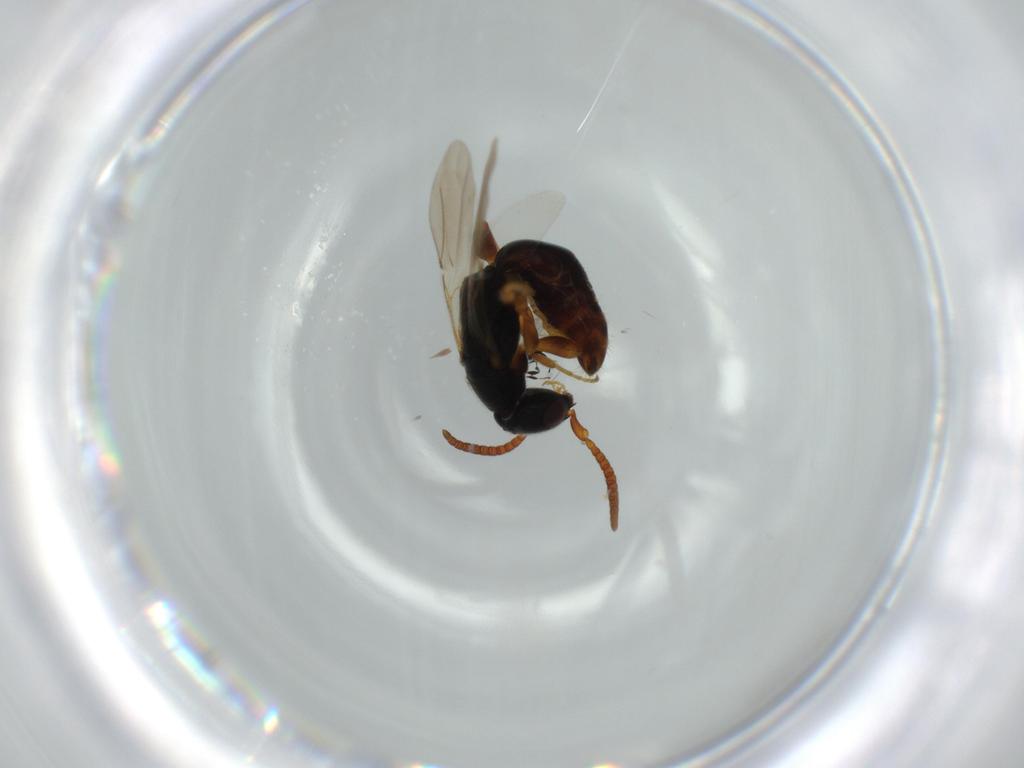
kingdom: Animalia
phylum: Arthropoda
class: Insecta
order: Hymenoptera
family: Platygastridae
